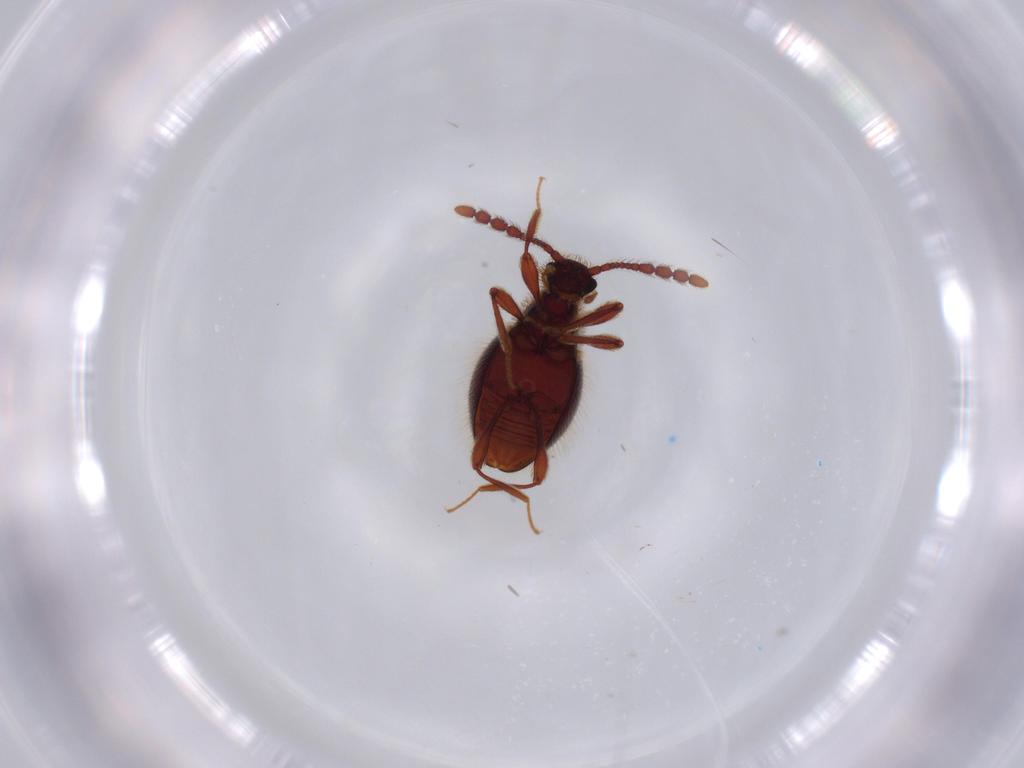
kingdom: Animalia
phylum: Arthropoda
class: Insecta
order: Coleoptera
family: Staphylinidae
